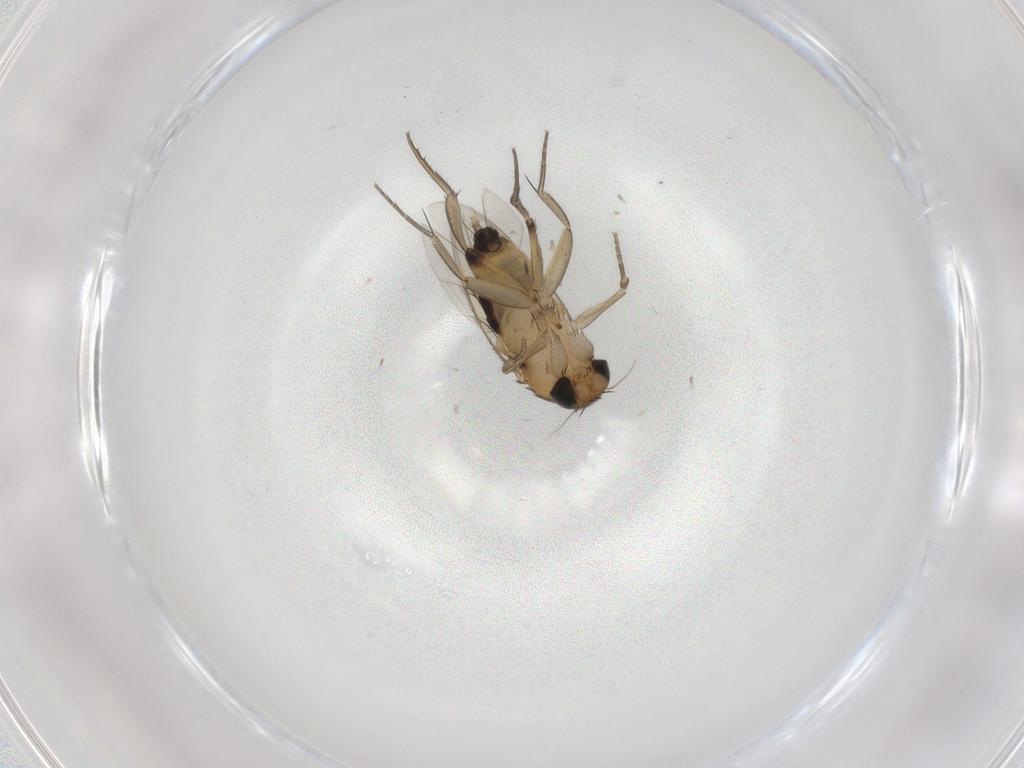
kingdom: Animalia
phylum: Arthropoda
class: Insecta
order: Diptera
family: Phoridae
